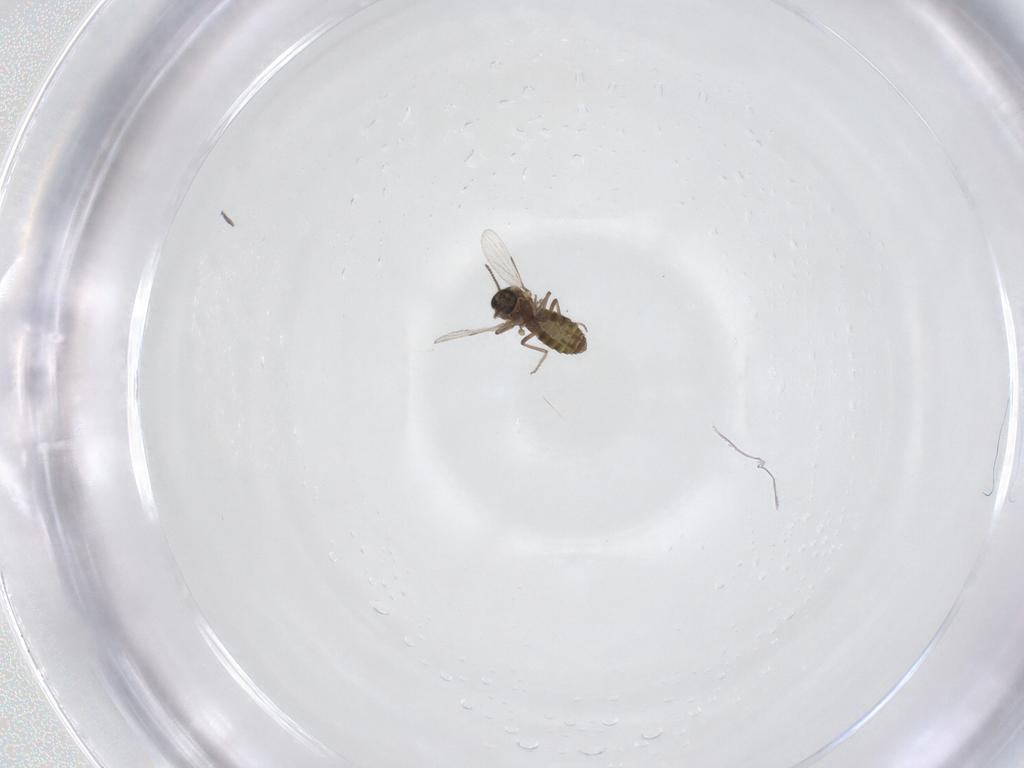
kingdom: Animalia
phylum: Arthropoda
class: Insecta
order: Diptera
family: Ceratopogonidae
